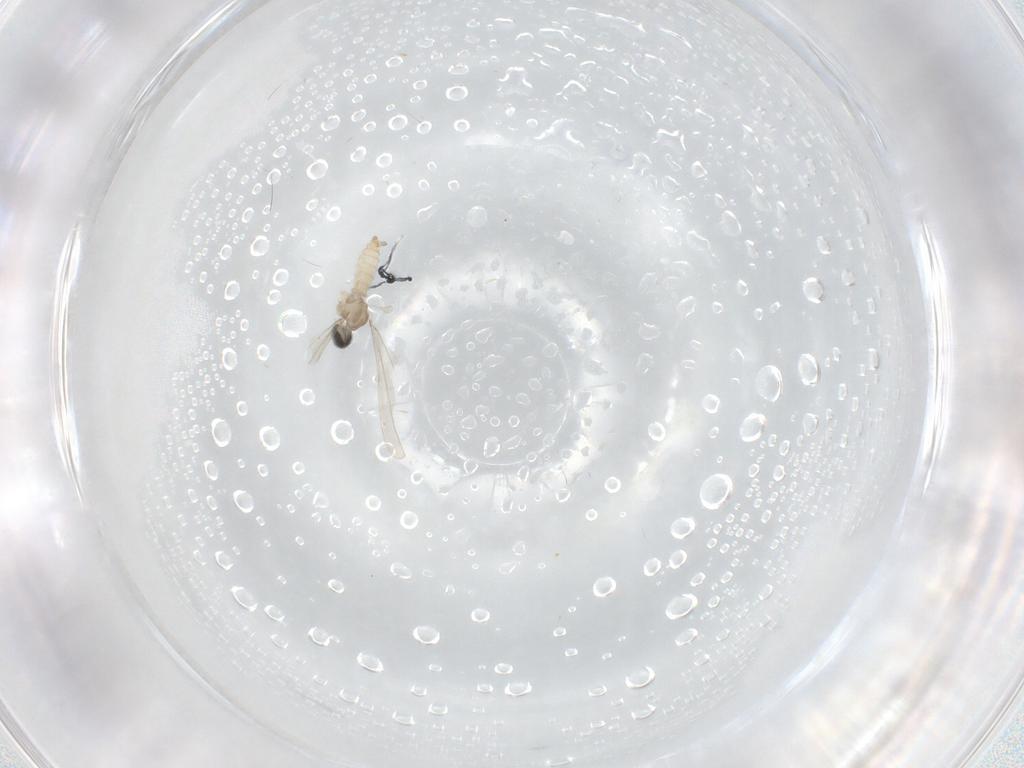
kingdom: Animalia
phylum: Arthropoda
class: Insecta
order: Diptera
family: Cecidomyiidae
